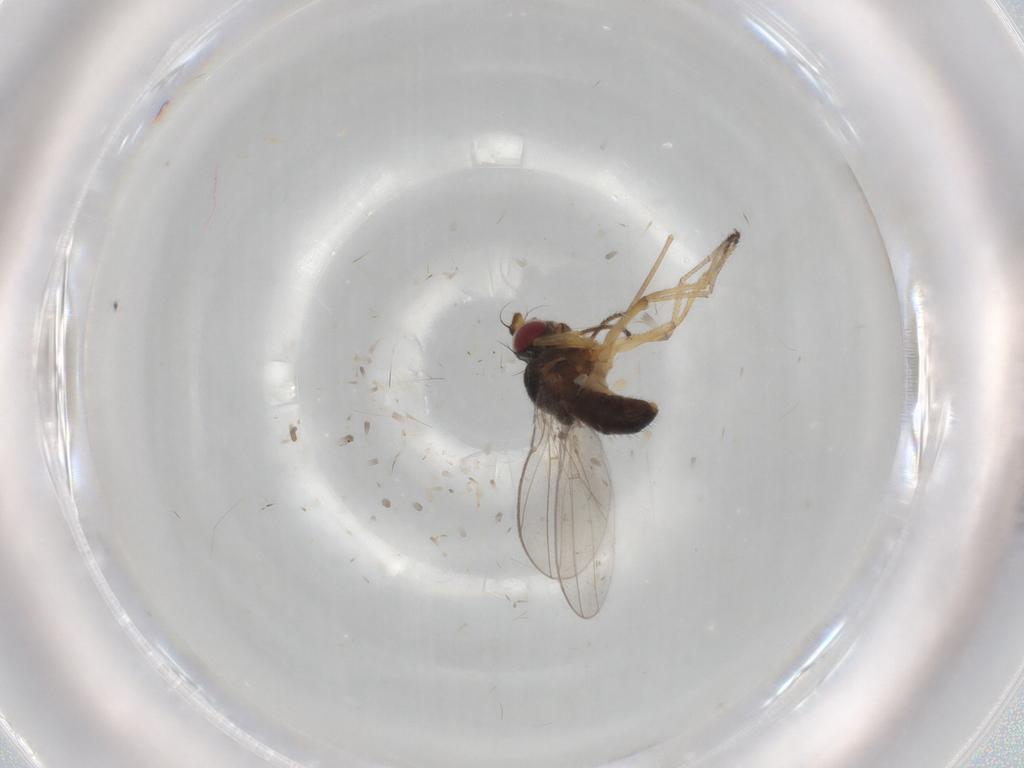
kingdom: Animalia
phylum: Arthropoda
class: Insecta
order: Diptera
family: Ephydridae
